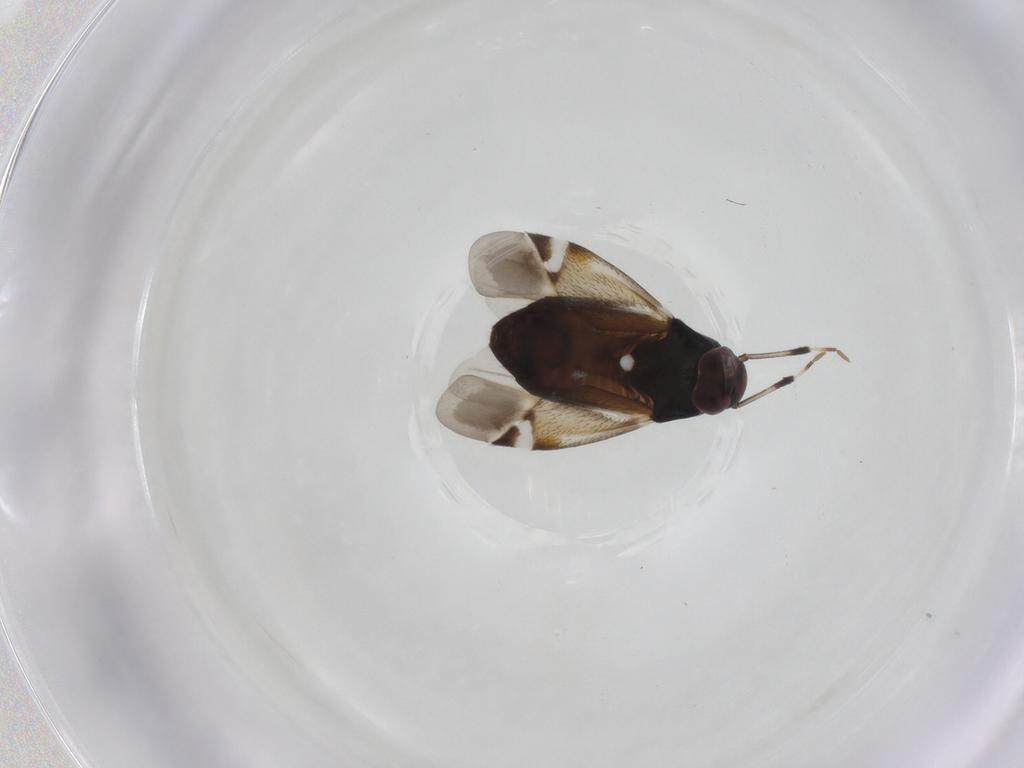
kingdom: Animalia
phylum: Arthropoda
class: Insecta
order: Hemiptera
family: Miridae
